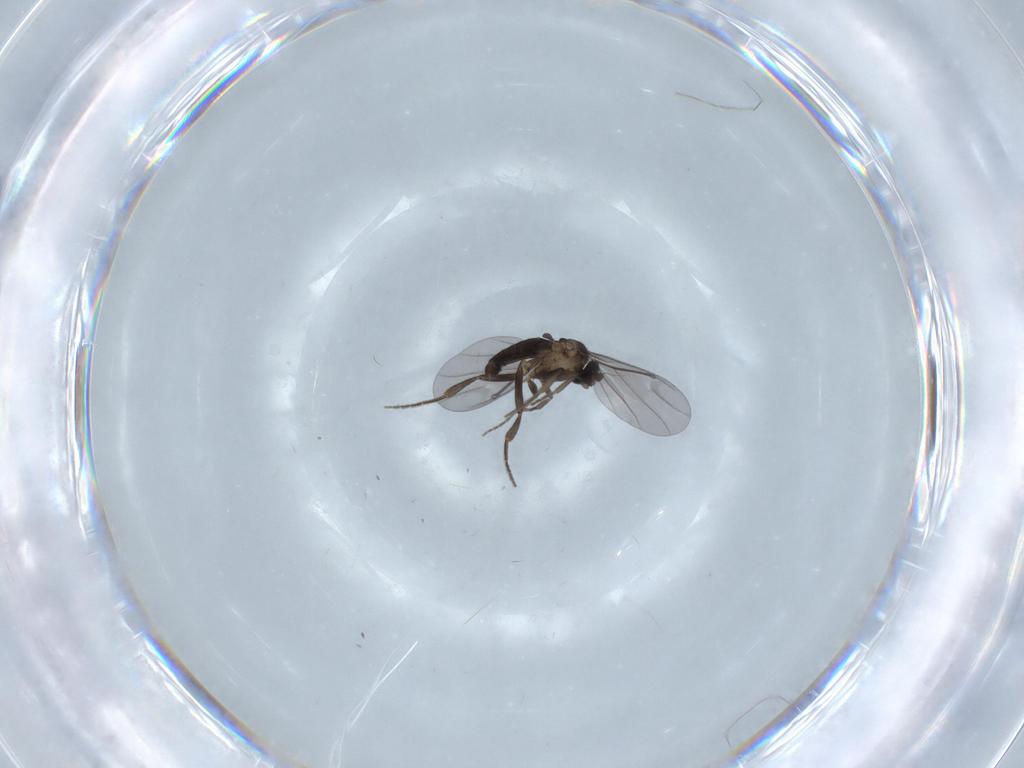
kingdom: Animalia
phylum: Arthropoda
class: Insecta
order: Diptera
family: Phoridae
